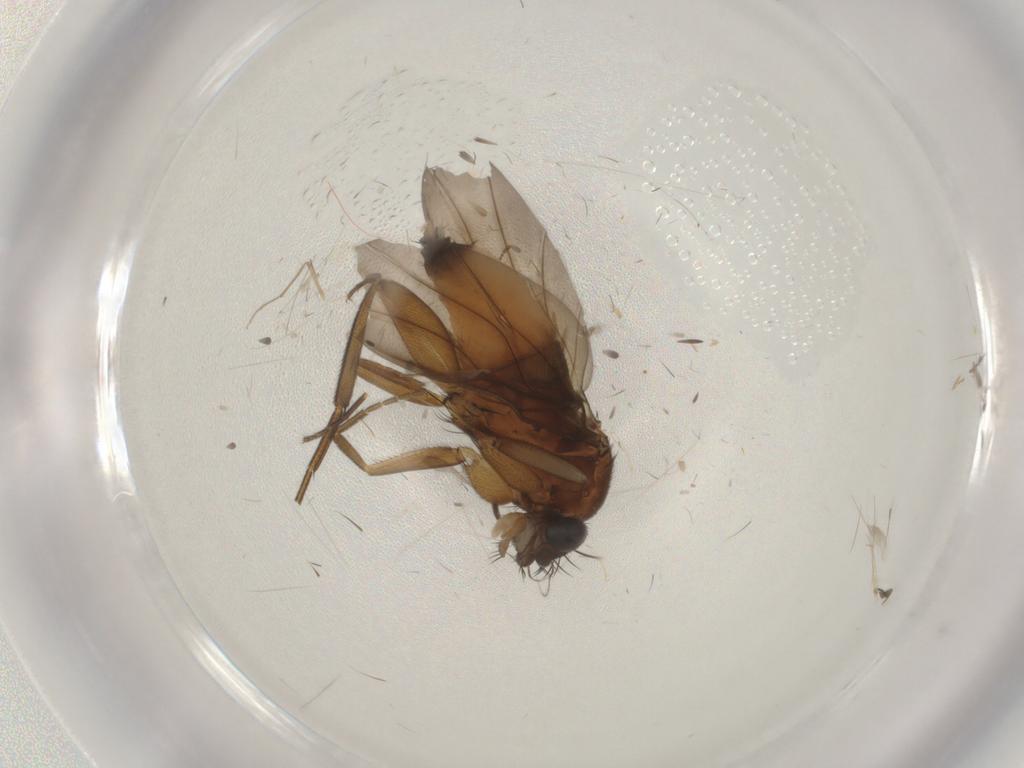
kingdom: Animalia
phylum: Arthropoda
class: Insecta
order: Diptera
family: Phoridae
